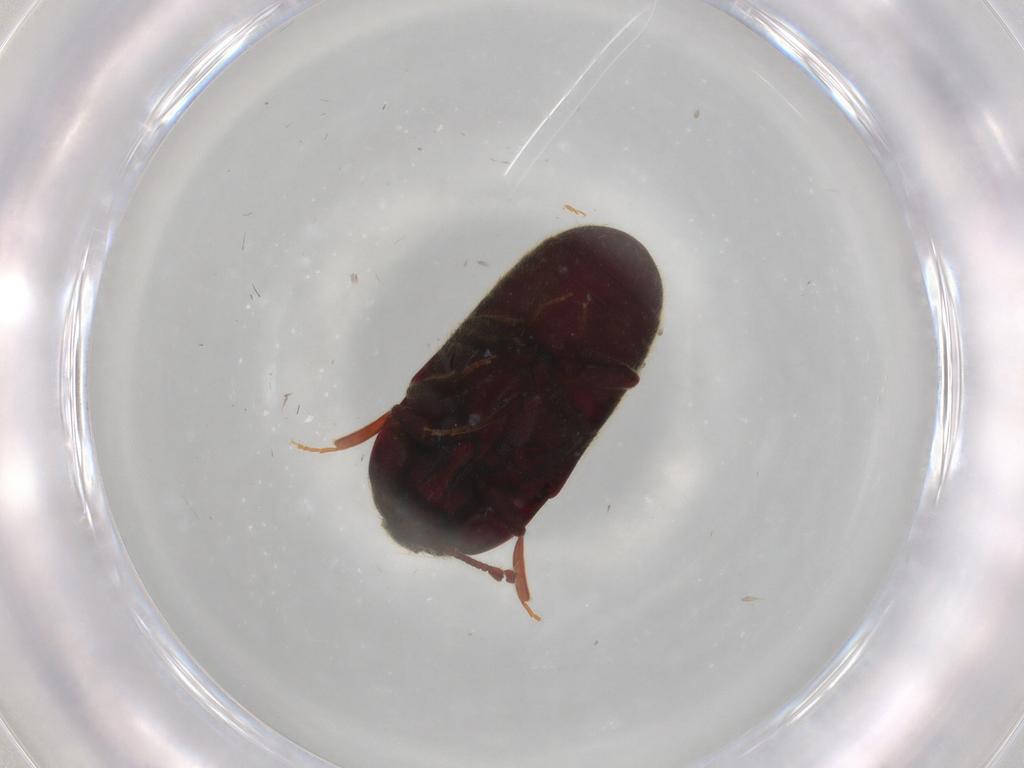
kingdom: Animalia
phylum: Arthropoda
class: Insecta
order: Coleoptera
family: Throscidae
